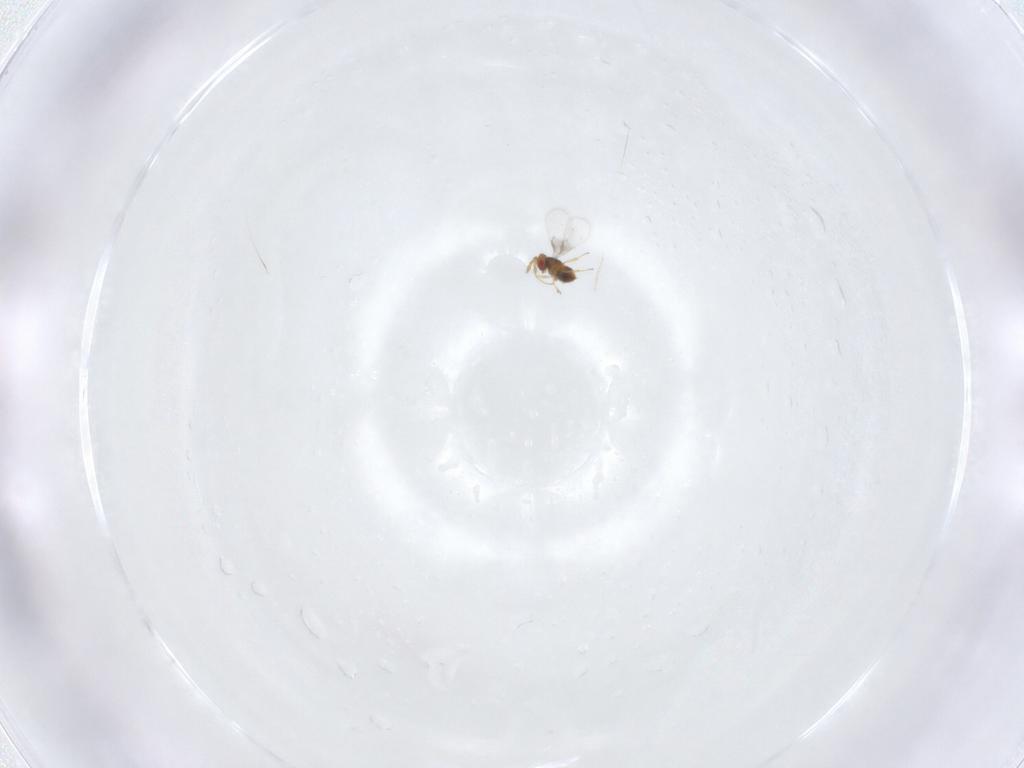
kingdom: Animalia
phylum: Arthropoda
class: Insecta
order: Hymenoptera
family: Trichogrammatidae
